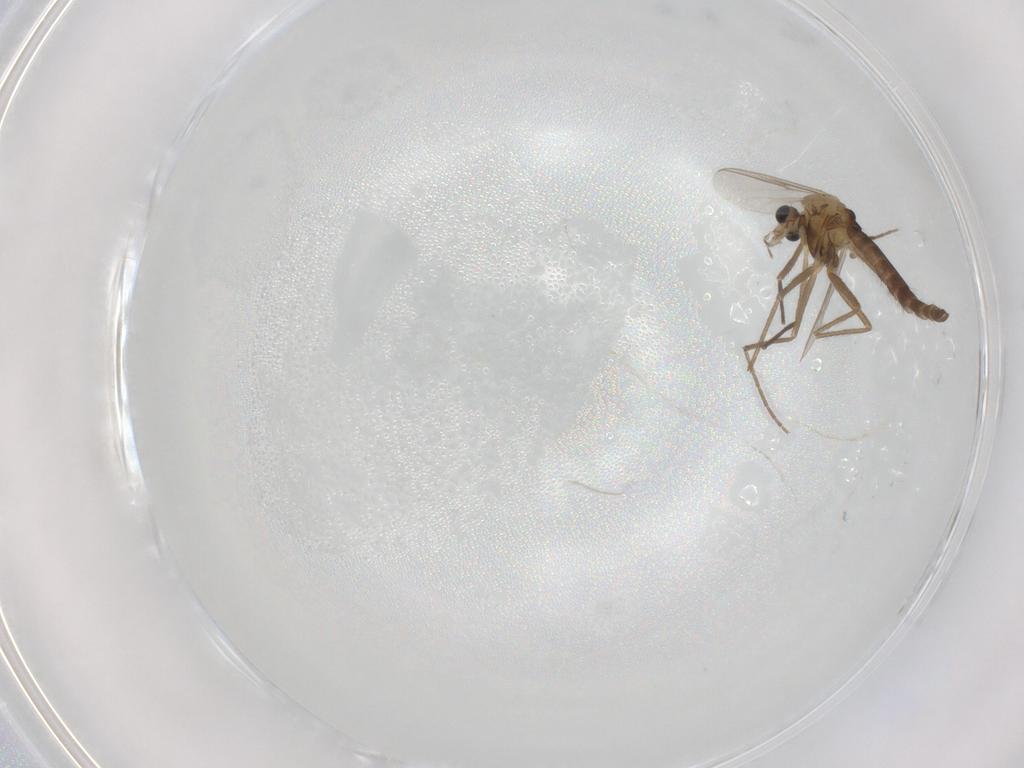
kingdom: Animalia
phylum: Arthropoda
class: Insecta
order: Diptera
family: Chironomidae
